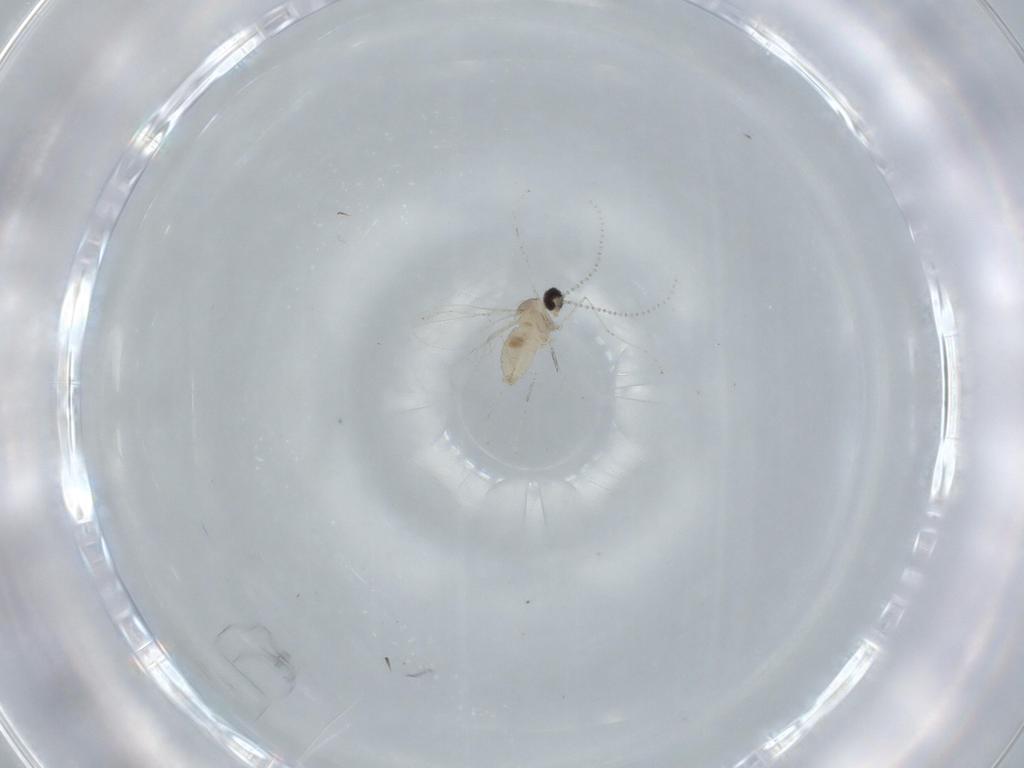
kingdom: Animalia
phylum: Arthropoda
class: Insecta
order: Diptera
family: Cecidomyiidae
